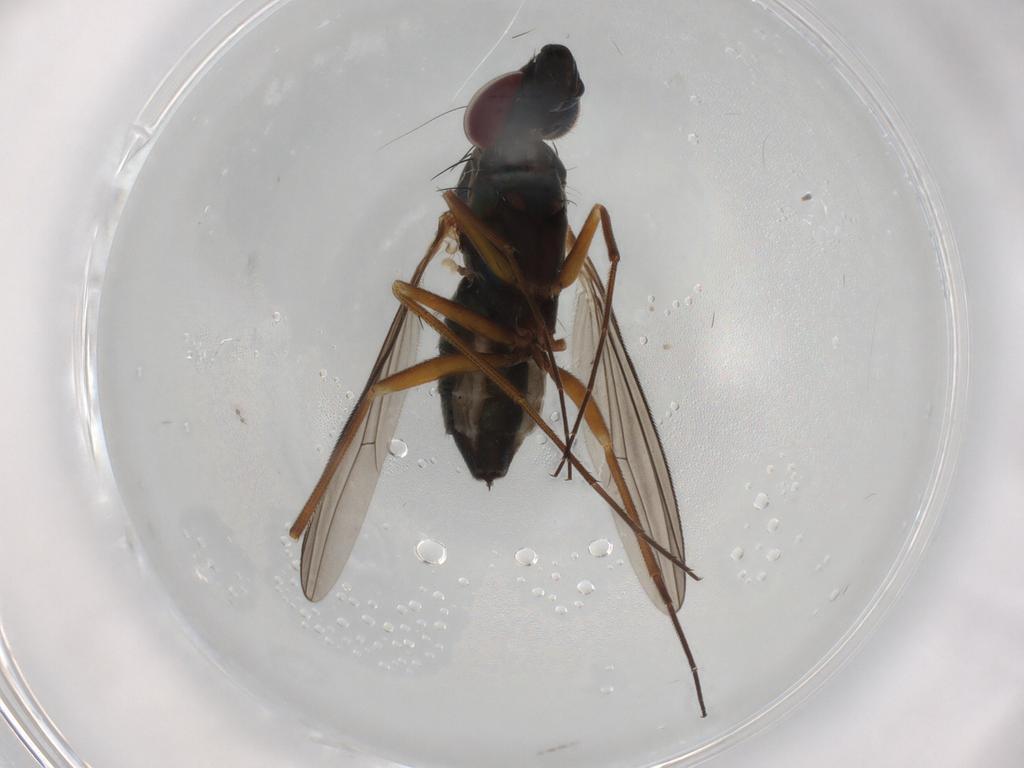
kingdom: Animalia
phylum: Arthropoda
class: Insecta
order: Diptera
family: Dolichopodidae
